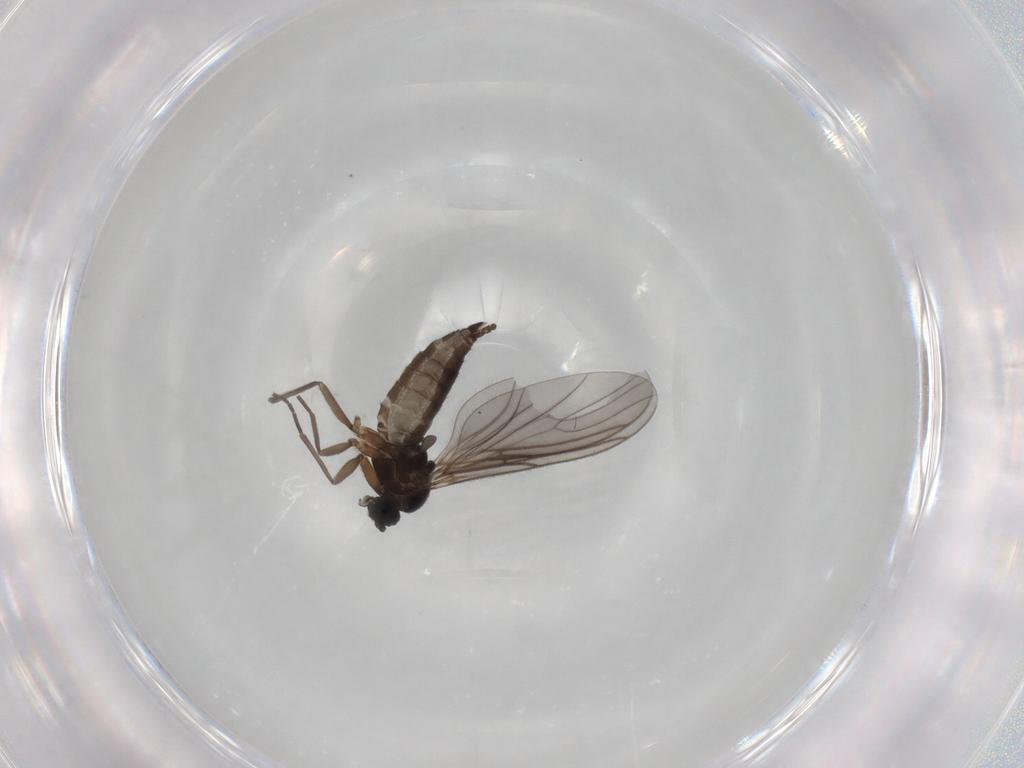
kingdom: Animalia
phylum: Arthropoda
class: Insecta
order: Diptera
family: Sciaridae
